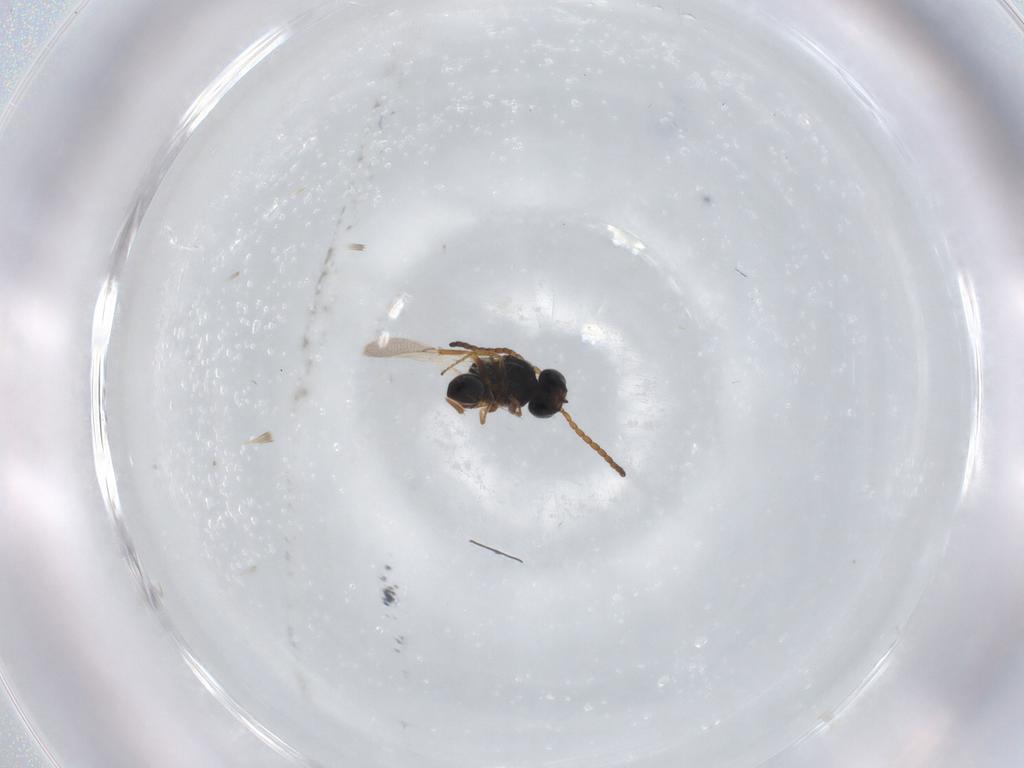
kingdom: Animalia
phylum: Arthropoda
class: Insecta
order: Hymenoptera
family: Figitidae
